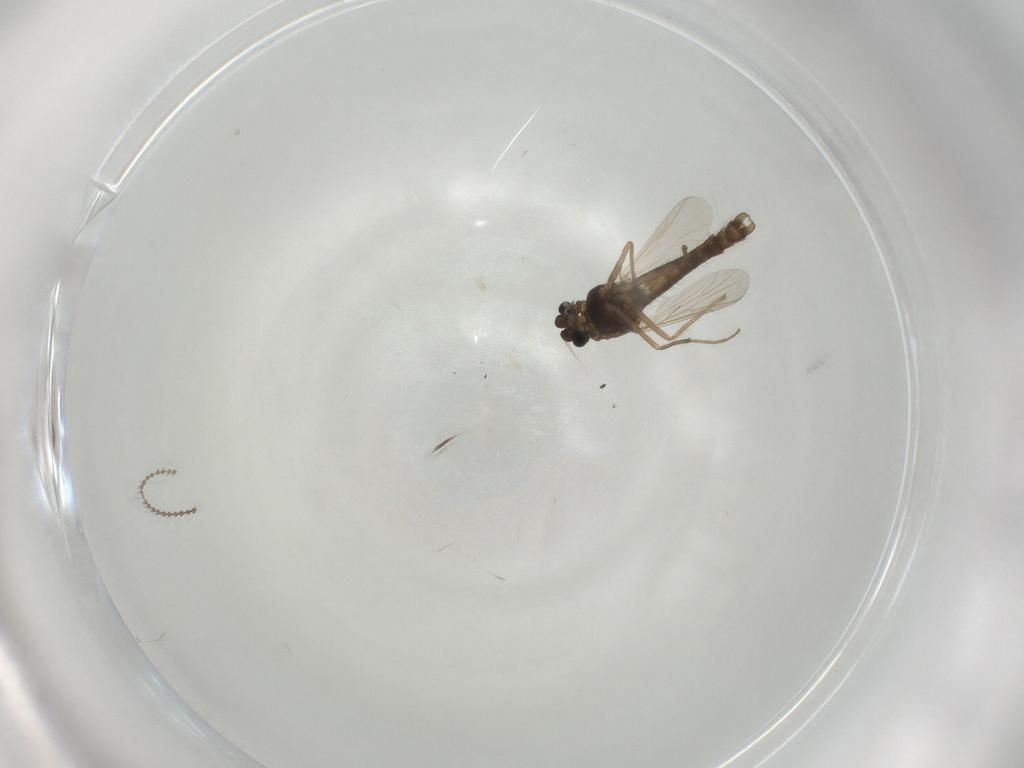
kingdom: Animalia
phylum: Arthropoda
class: Insecta
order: Diptera
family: Chironomidae
